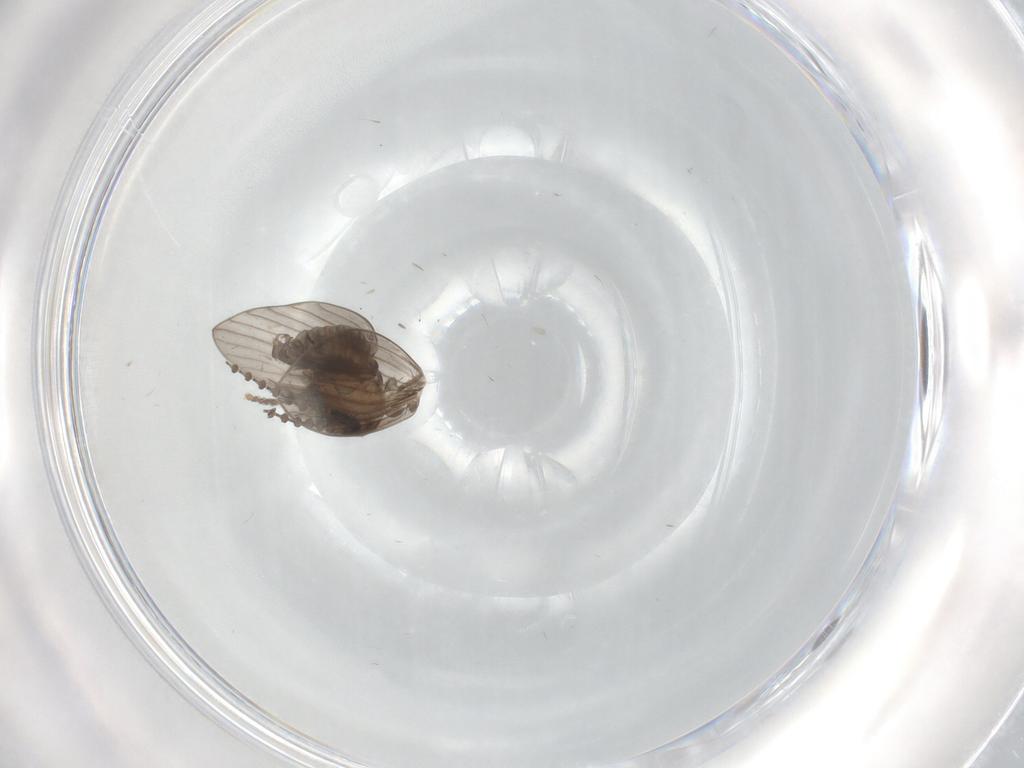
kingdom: Animalia
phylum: Arthropoda
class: Insecta
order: Diptera
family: Psychodidae
